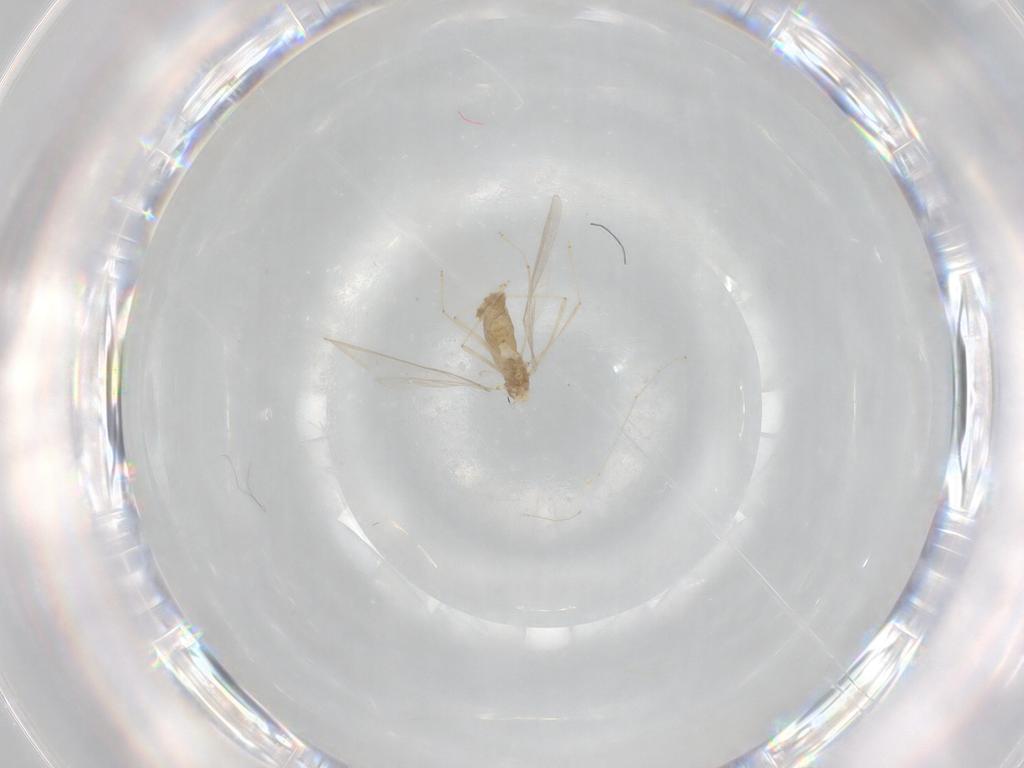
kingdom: Animalia
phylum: Arthropoda
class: Insecta
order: Diptera
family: Cecidomyiidae
